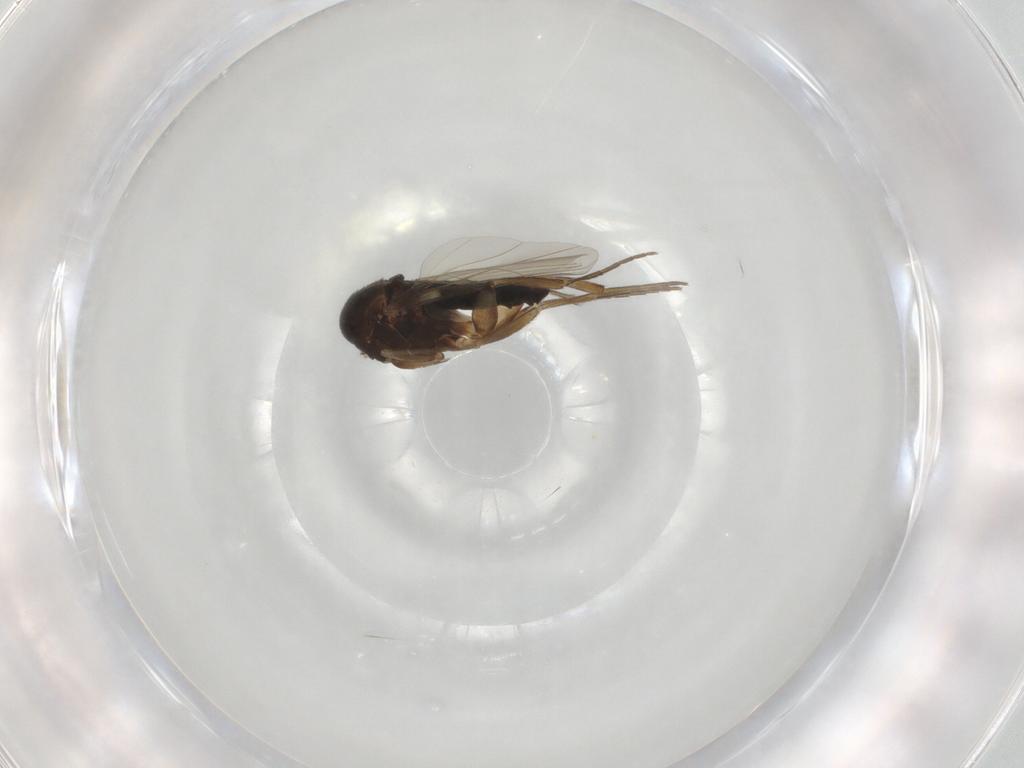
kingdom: Animalia
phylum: Arthropoda
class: Insecta
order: Diptera
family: Phoridae
